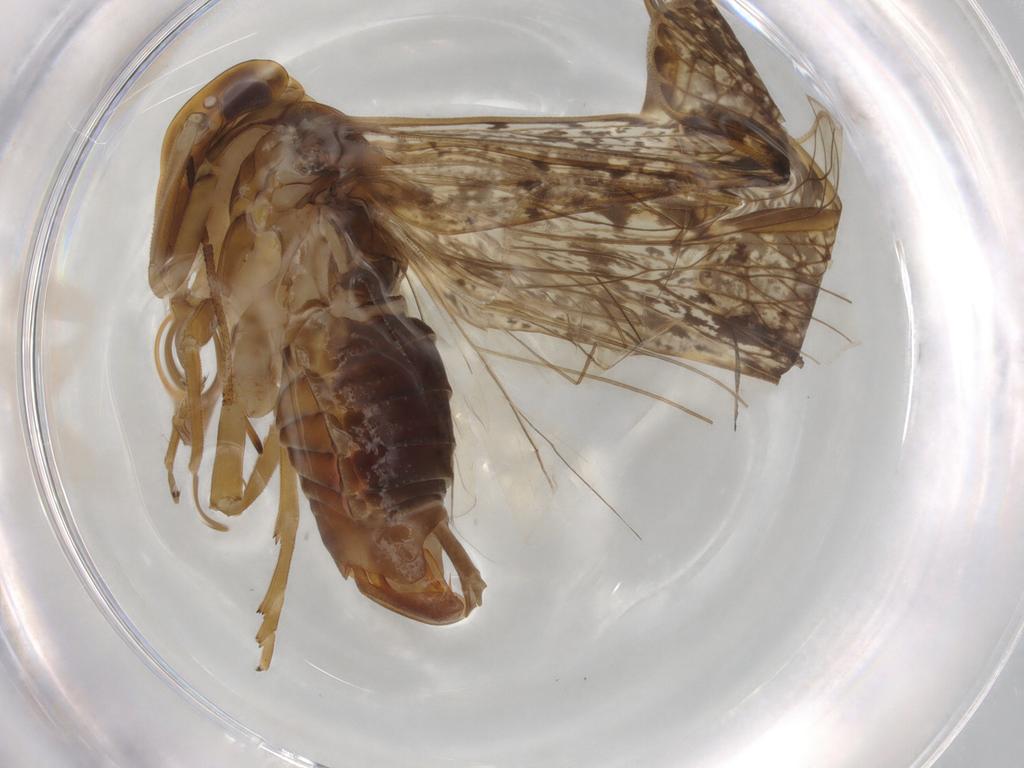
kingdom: Animalia
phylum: Arthropoda
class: Insecta
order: Hemiptera
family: Cixiidae
